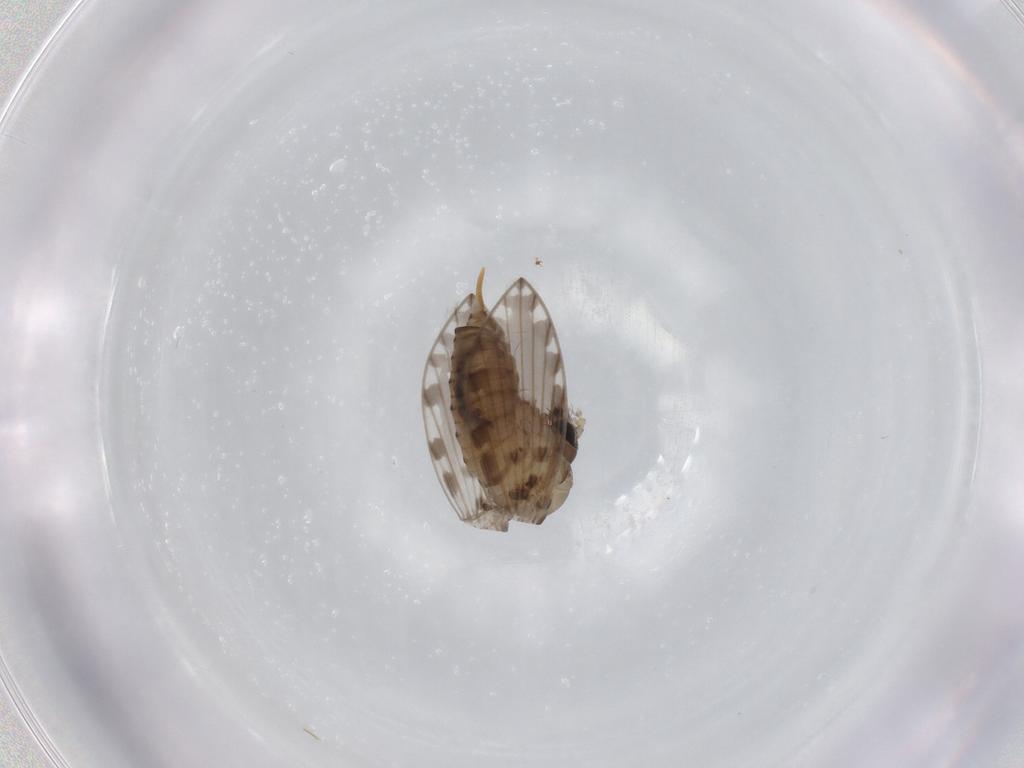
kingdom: Animalia
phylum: Arthropoda
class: Insecta
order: Diptera
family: Psychodidae
